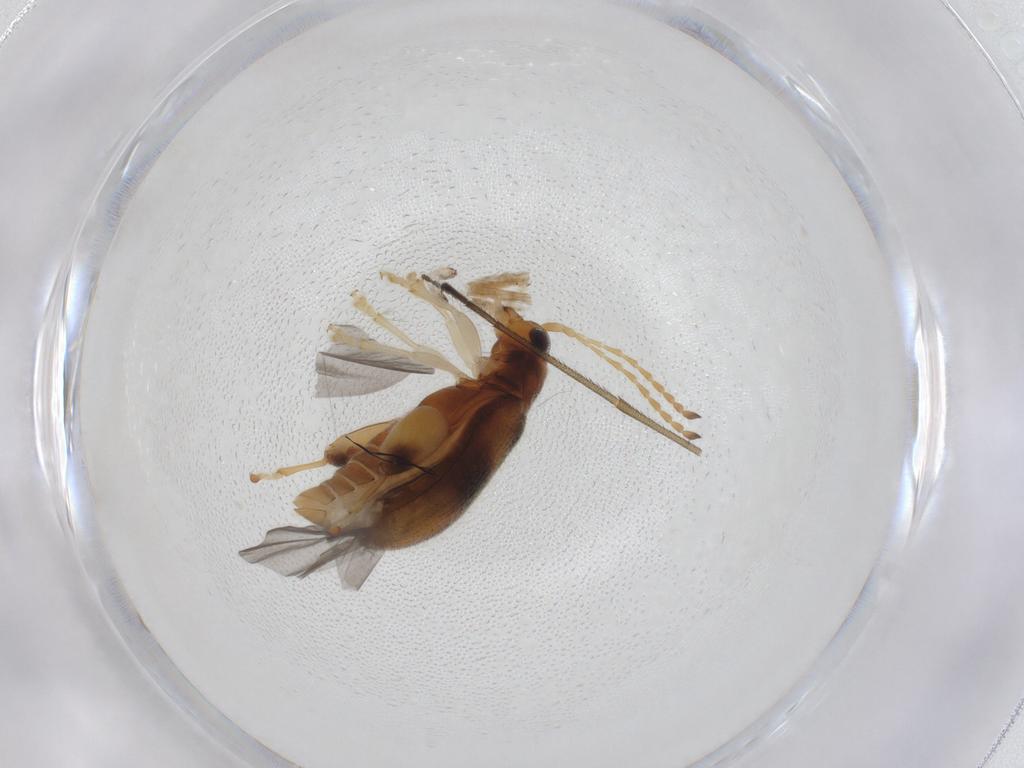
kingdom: Animalia
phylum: Arthropoda
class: Insecta
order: Coleoptera
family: Chrysomelidae
